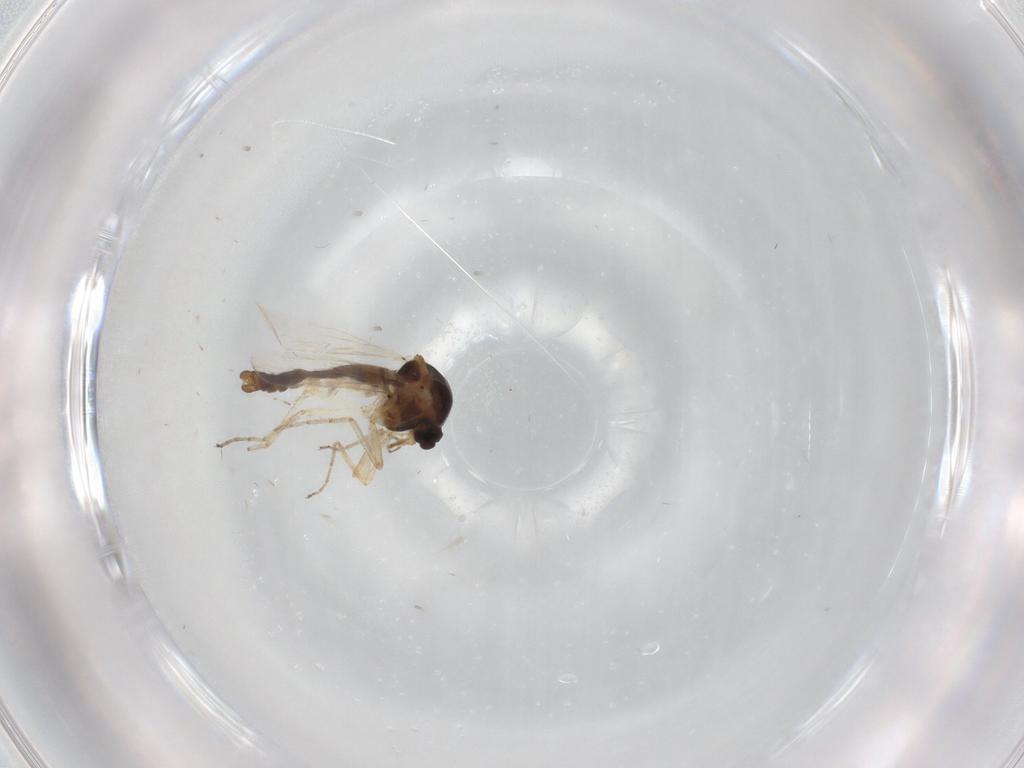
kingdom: Animalia
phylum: Arthropoda
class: Insecta
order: Diptera
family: Ceratopogonidae
